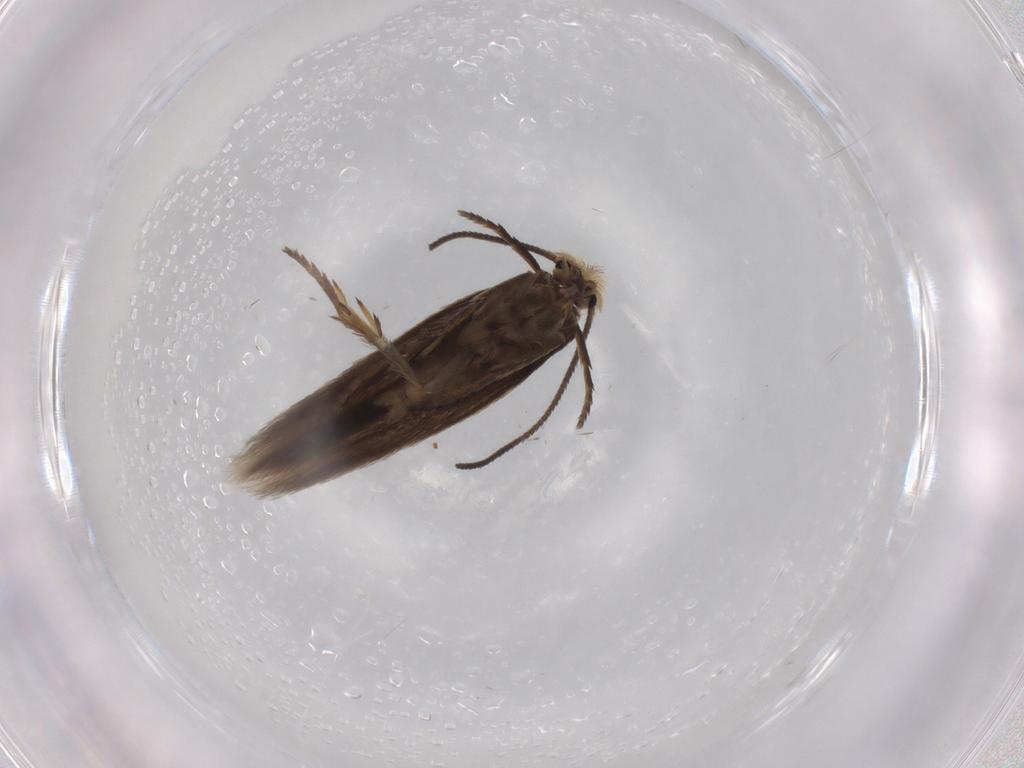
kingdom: Animalia
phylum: Arthropoda
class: Insecta
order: Lepidoptera
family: Nepticulidae
